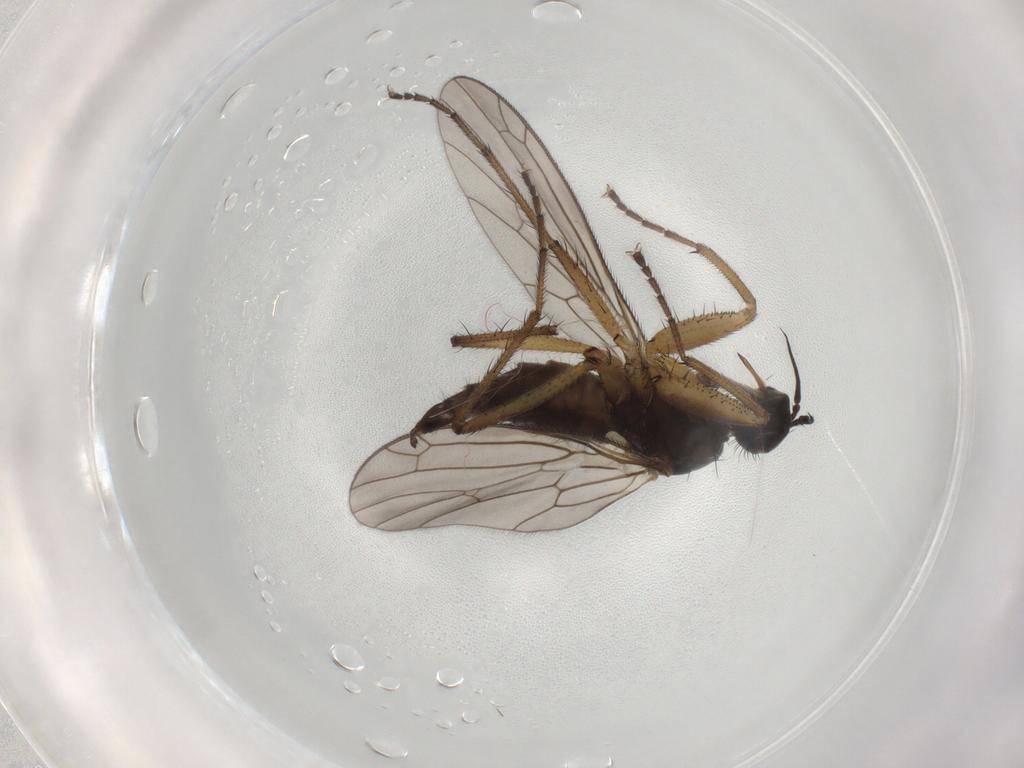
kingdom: Animalia
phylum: Arthropoda
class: Insecta
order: Diptera
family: Empididae
